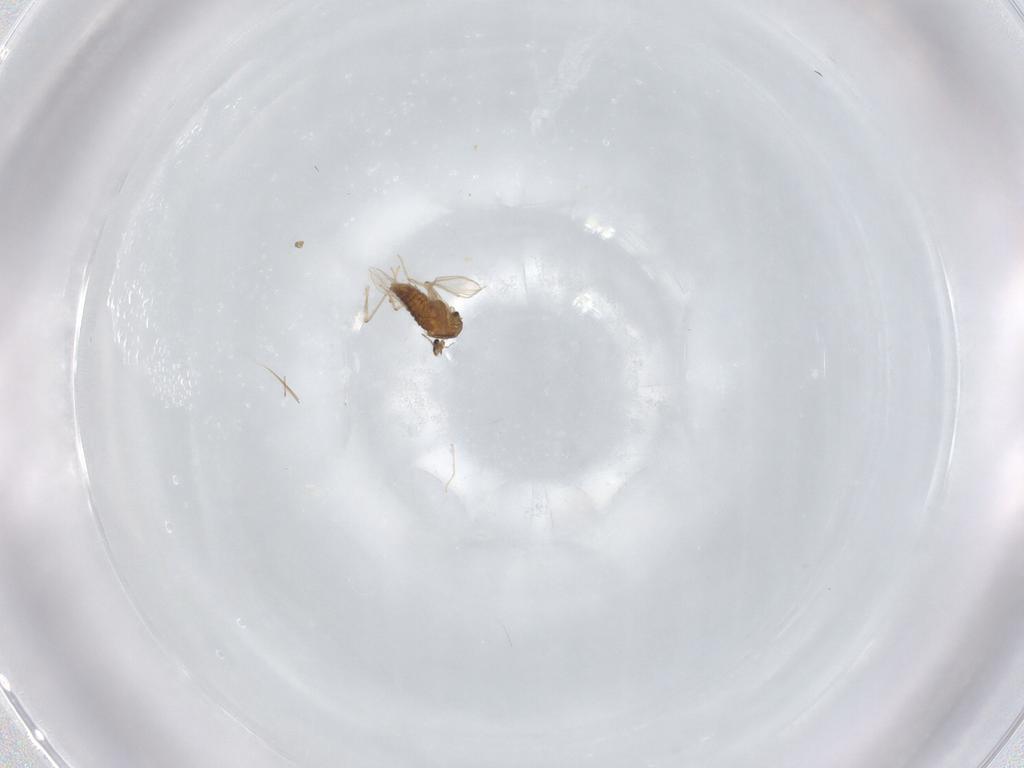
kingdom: Animalia
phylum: Arthropoda
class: Insecta
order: Diptera
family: Chironomidae
